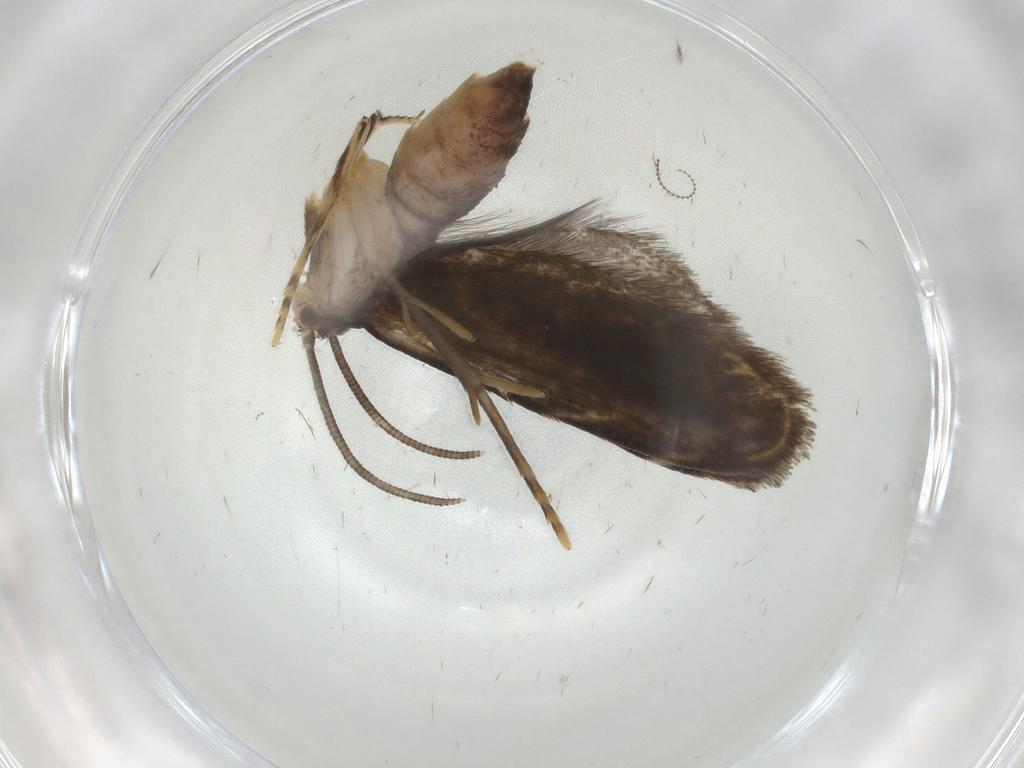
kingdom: Animalia
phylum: Arthropoda
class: Insecta
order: Lepidoptera
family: Dryadaulidae
